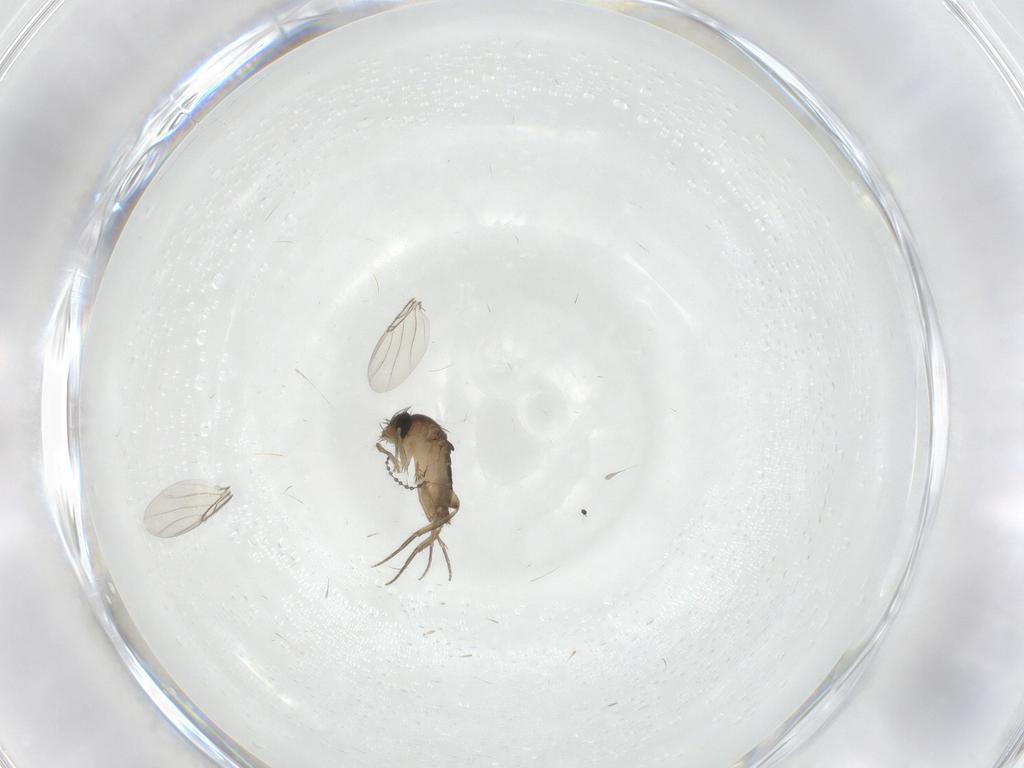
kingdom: Animalia
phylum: Arthropoda
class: Insecta
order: Diptera
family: Phoridae
